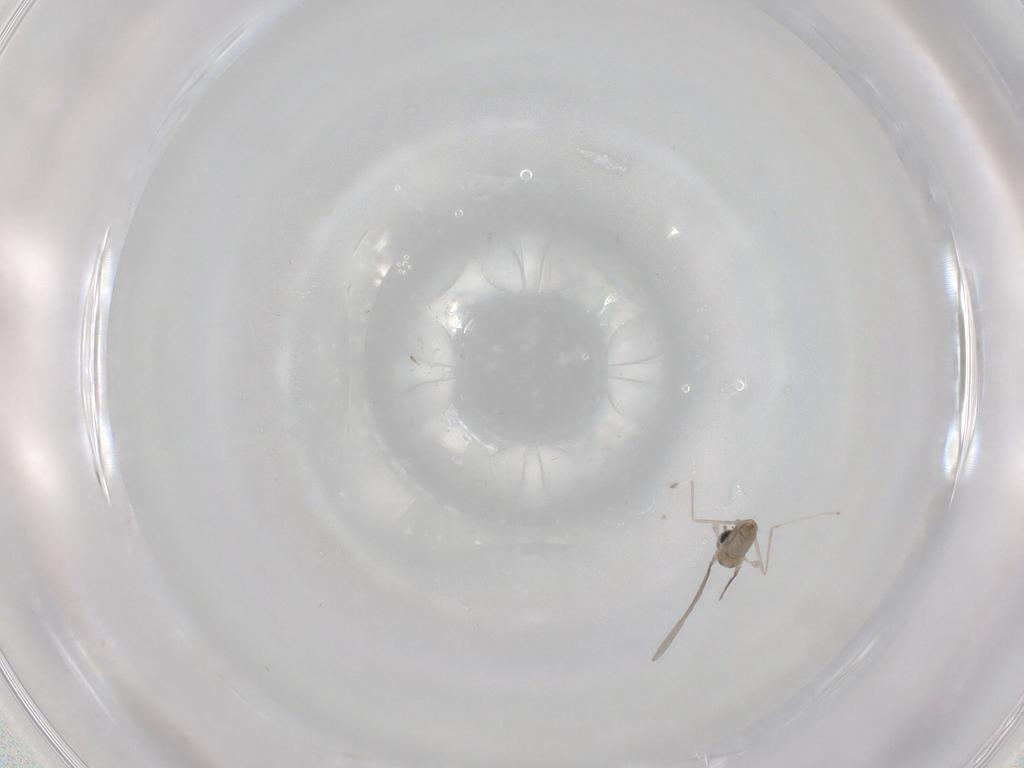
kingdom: Animalia
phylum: Arthropoda
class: Insecta
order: Diptera
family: Cecidomyiidae
